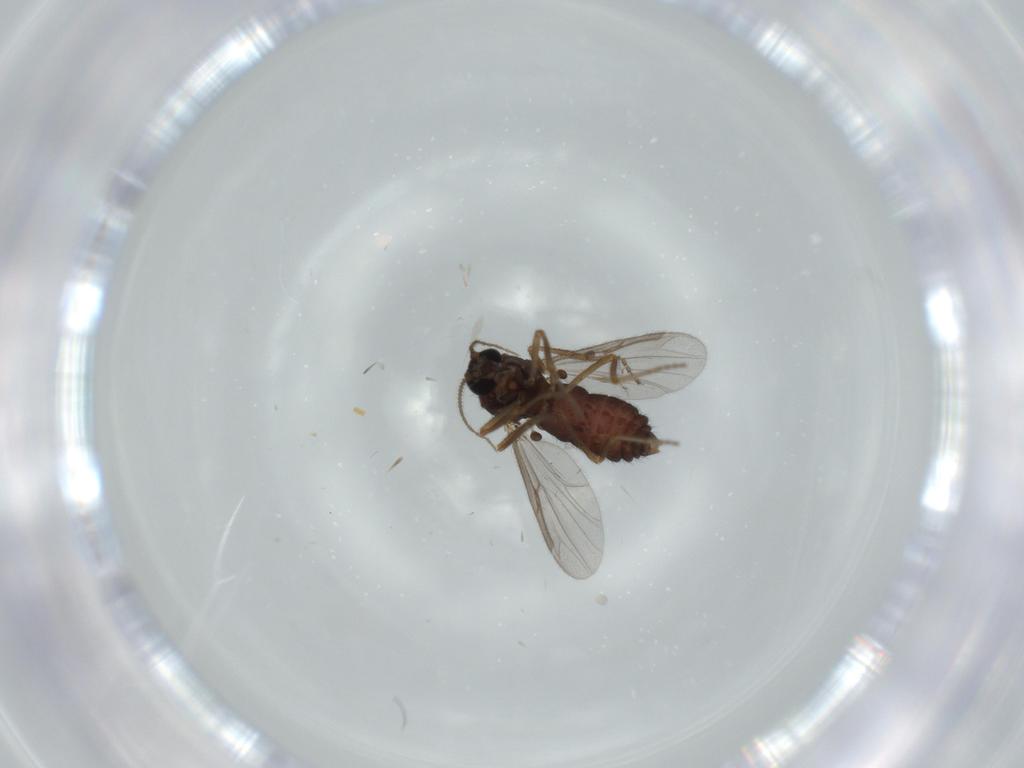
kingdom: Animalia
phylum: Arthropoda
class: Insecta
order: Diptera
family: Ceratopogonidae
